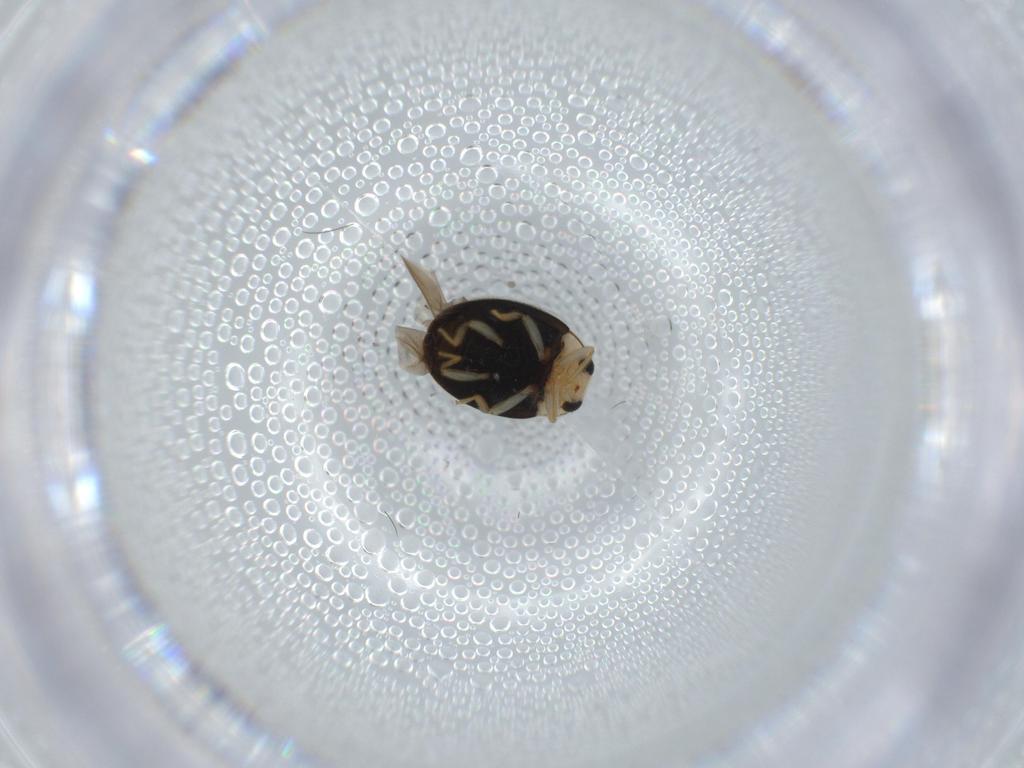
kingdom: Animalia
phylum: Arthropoda
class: Insecta
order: Coleoptera
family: Coccinellidae
